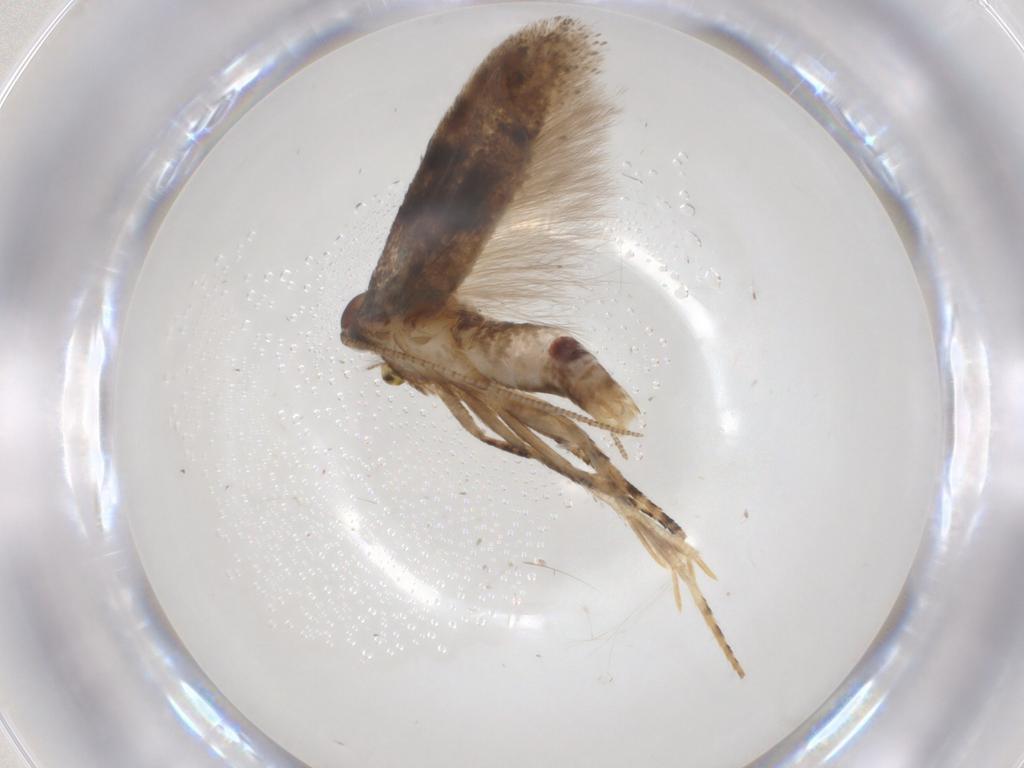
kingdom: Animalia
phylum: Arthropoda
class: Insecta
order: Lepidoptera
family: Gelechiidae
